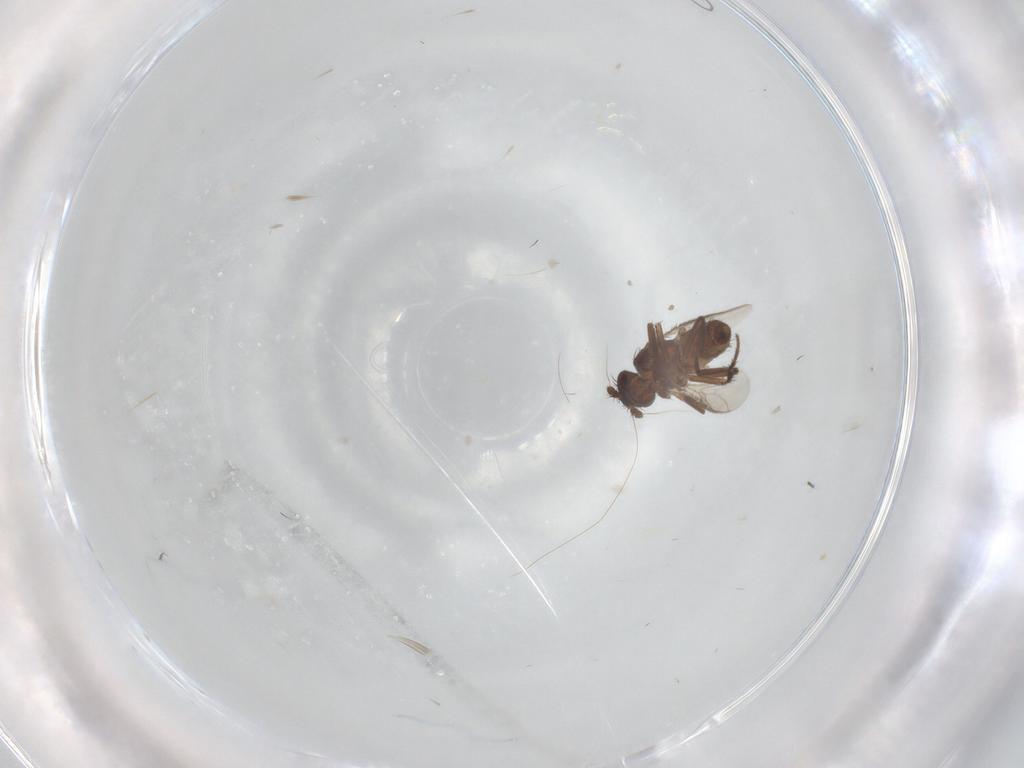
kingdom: Animalia
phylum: Arthropoda
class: Insecta
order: Diptera
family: Sphaeroceridae
